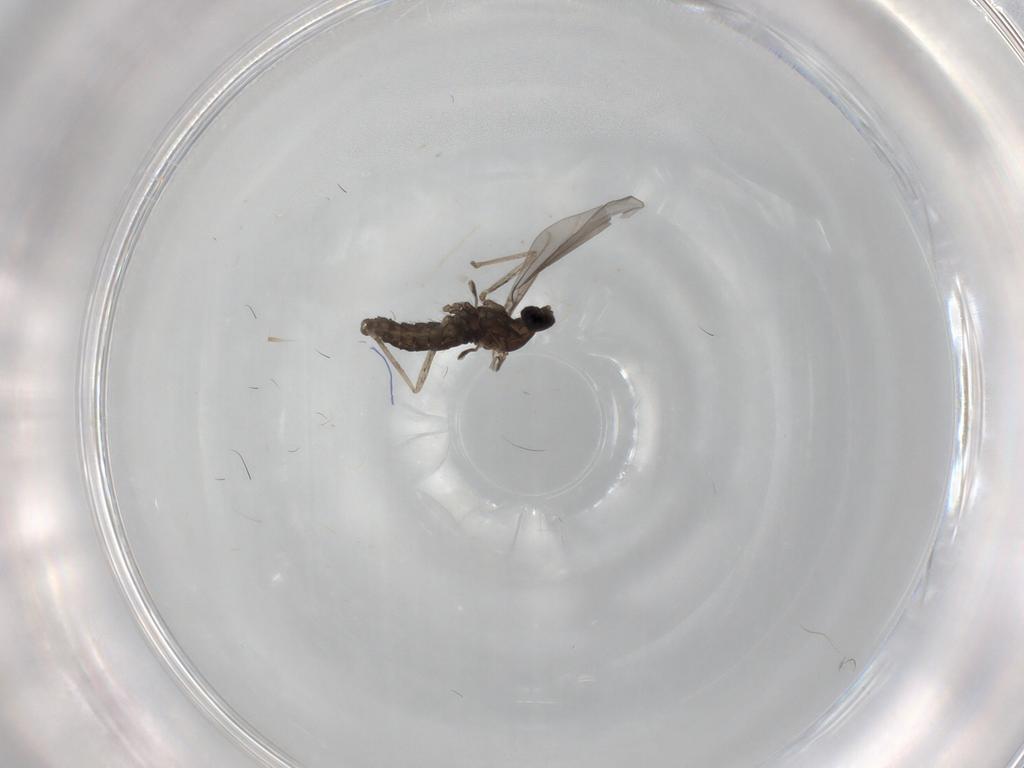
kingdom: Animalia
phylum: Arthropoda
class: Insecta
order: Diptera
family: Cecidomyiidae
